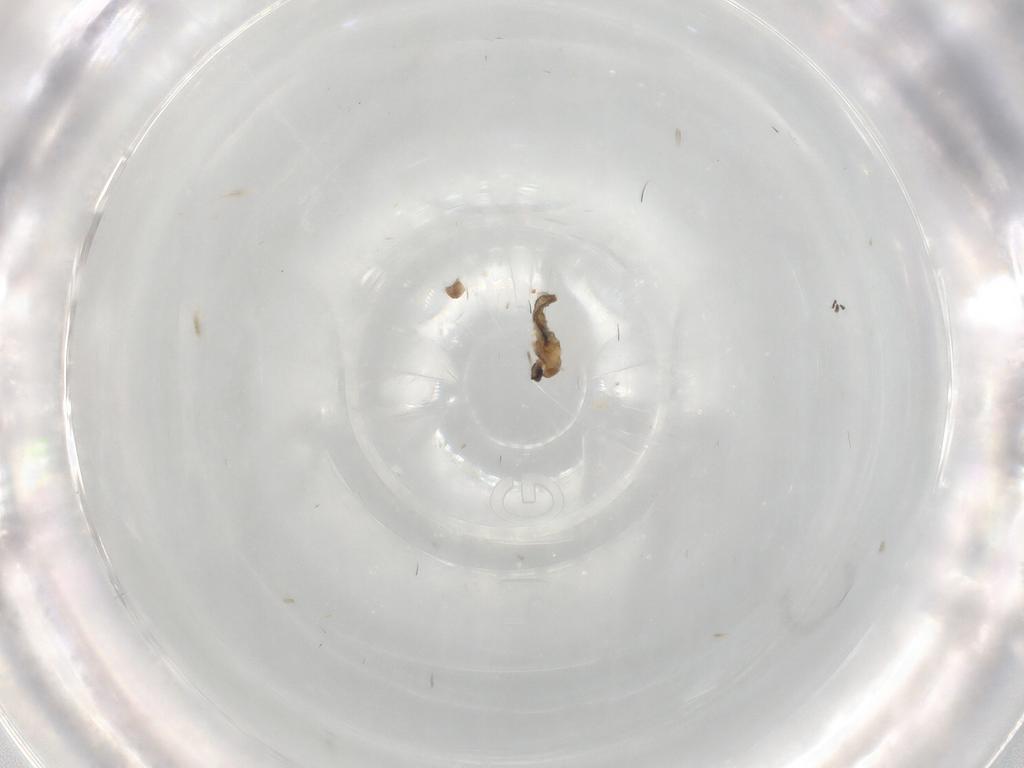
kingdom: Animalia
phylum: Arthropoda
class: Insecta
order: Diptera
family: Cecidomyiidae
